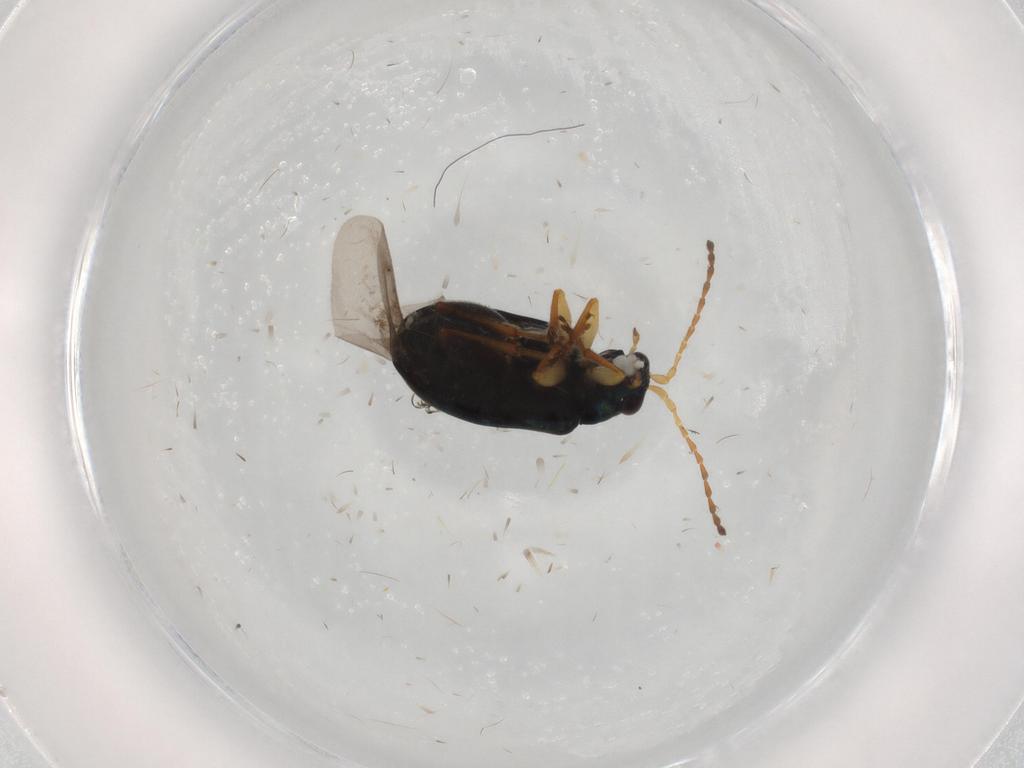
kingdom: Animalia
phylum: Arthropoda
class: Insecta
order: Coleoptera
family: Chrysomelidae
